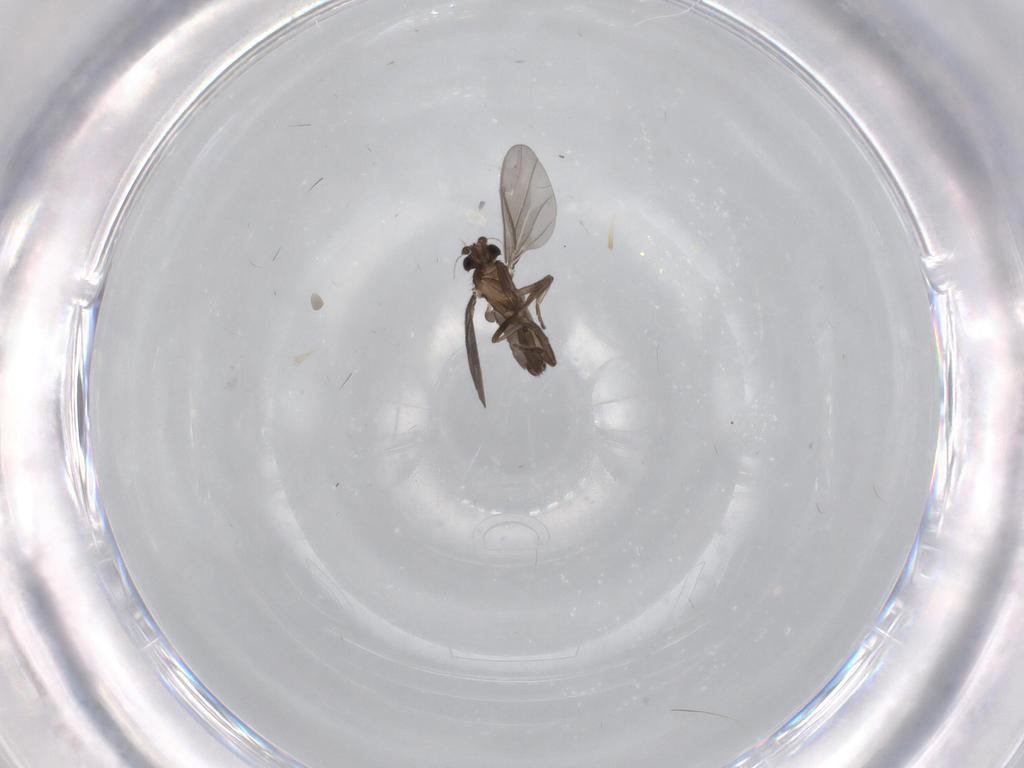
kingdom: Animalia
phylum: Arthropoda
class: Insecta
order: Diptera
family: Phoridae
